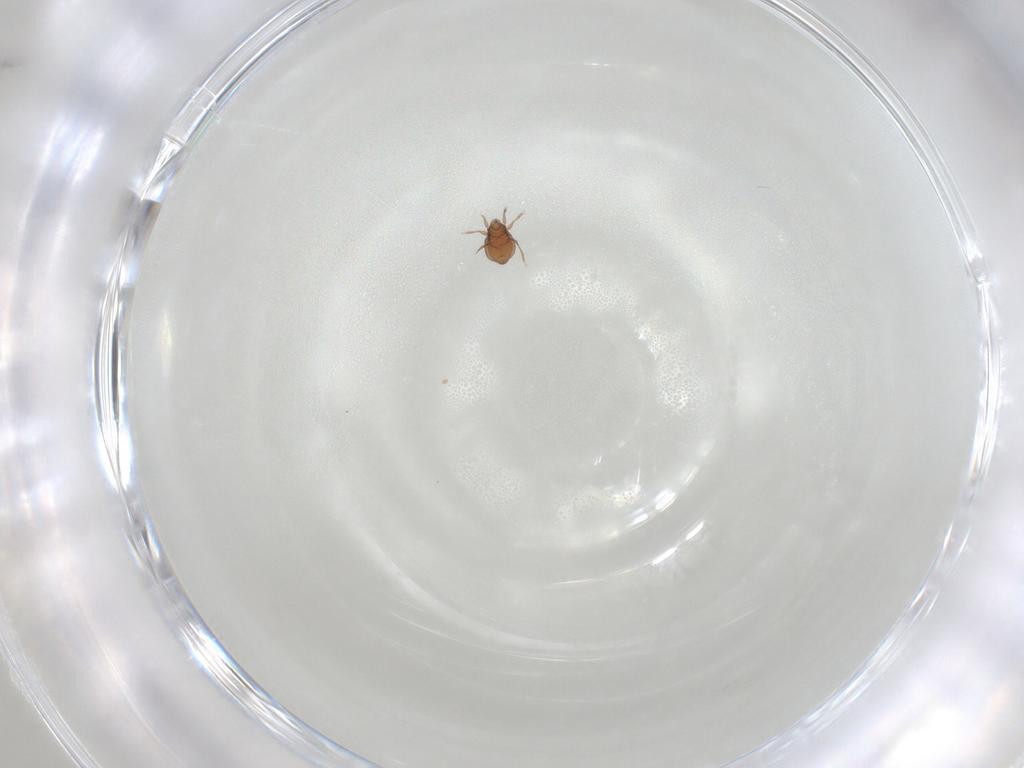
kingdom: Animalia
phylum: Arthropoda
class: Arachnida
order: Sarcoptiformes
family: Oribatulidae
